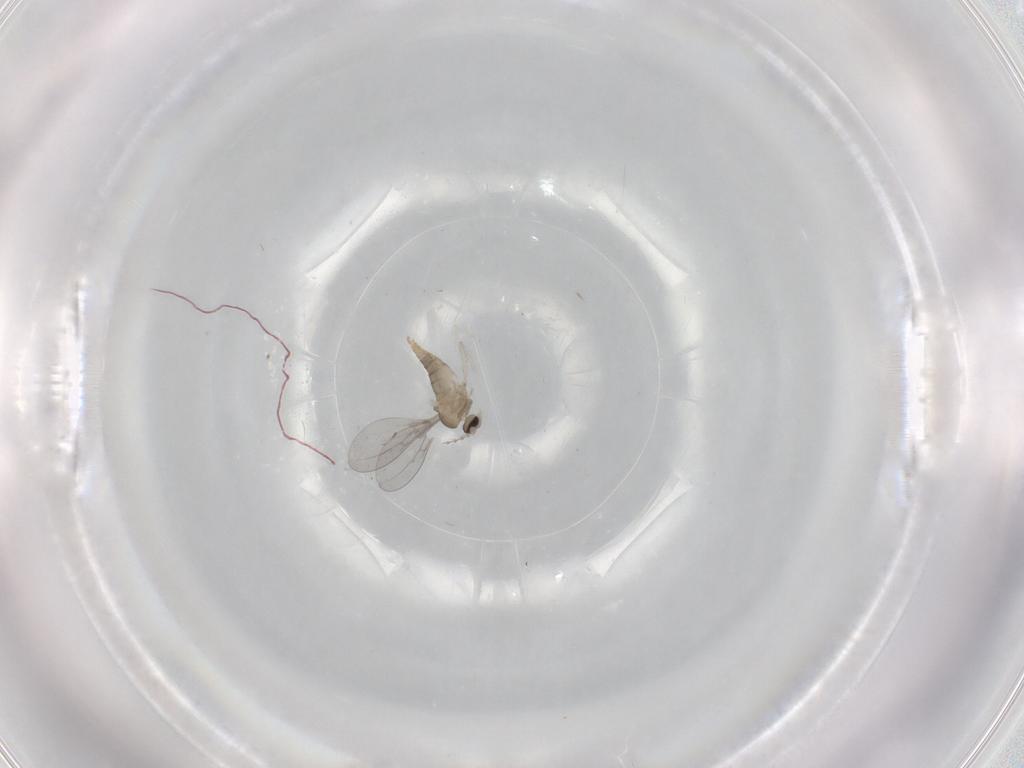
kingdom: Animalia
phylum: Arthropoda
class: Insecta
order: Diptera
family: Cecidomyiidae
